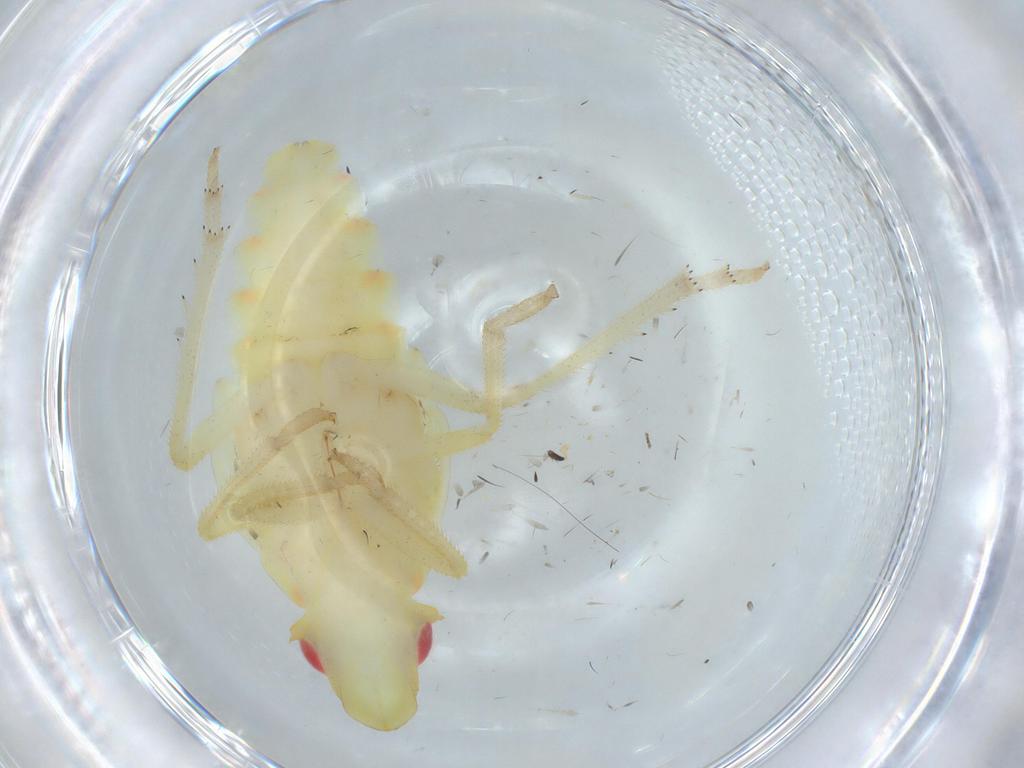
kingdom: Animalia
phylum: Arthropoda
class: Insecta
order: Hemiptera
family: Tropiduchidae
